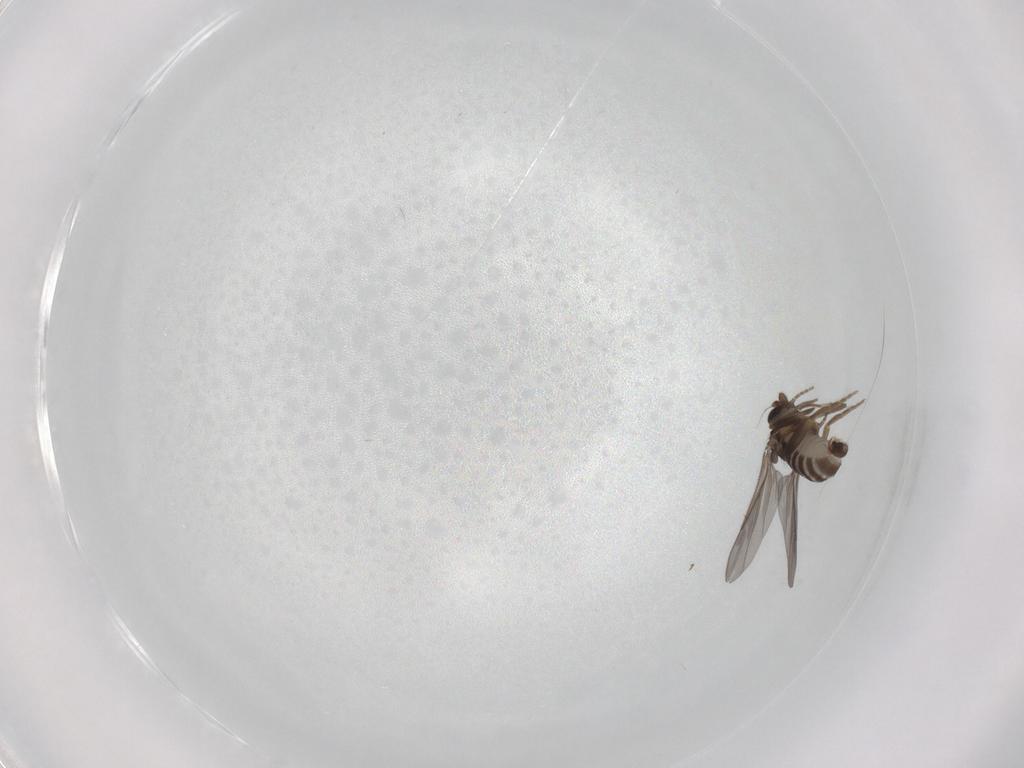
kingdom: Animalia
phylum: Arthropoda
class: Insecta
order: Diptera
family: Phoridae
